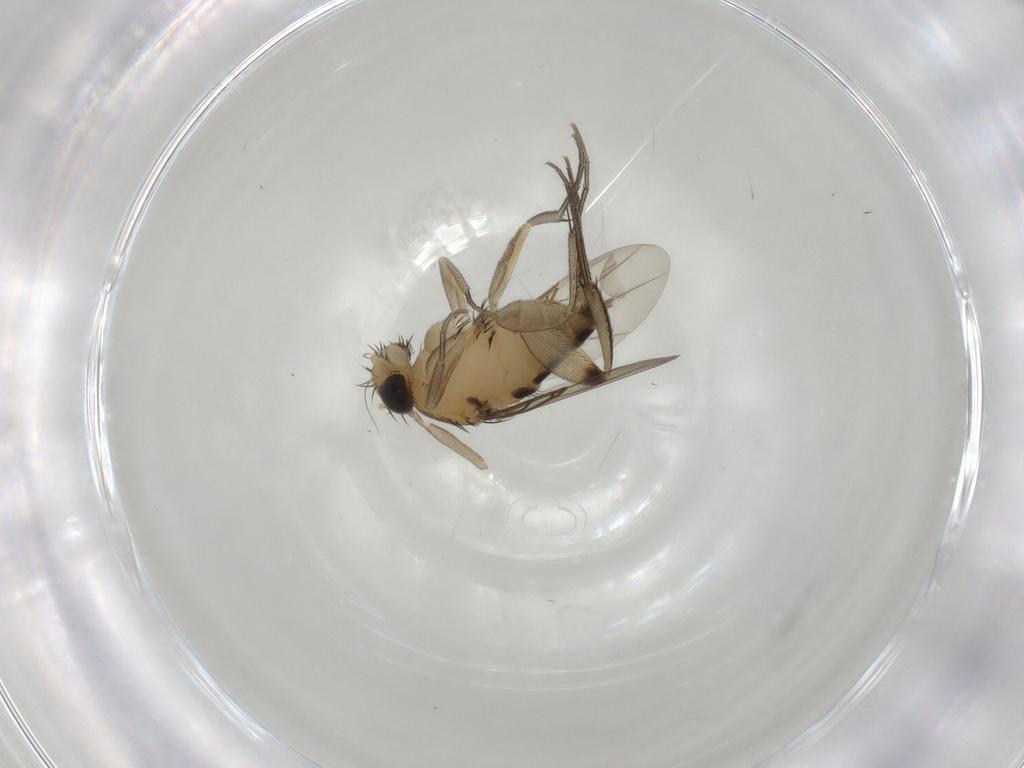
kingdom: Animalia
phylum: Arthropoda
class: Insecta
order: Diptera
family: Phoridae
